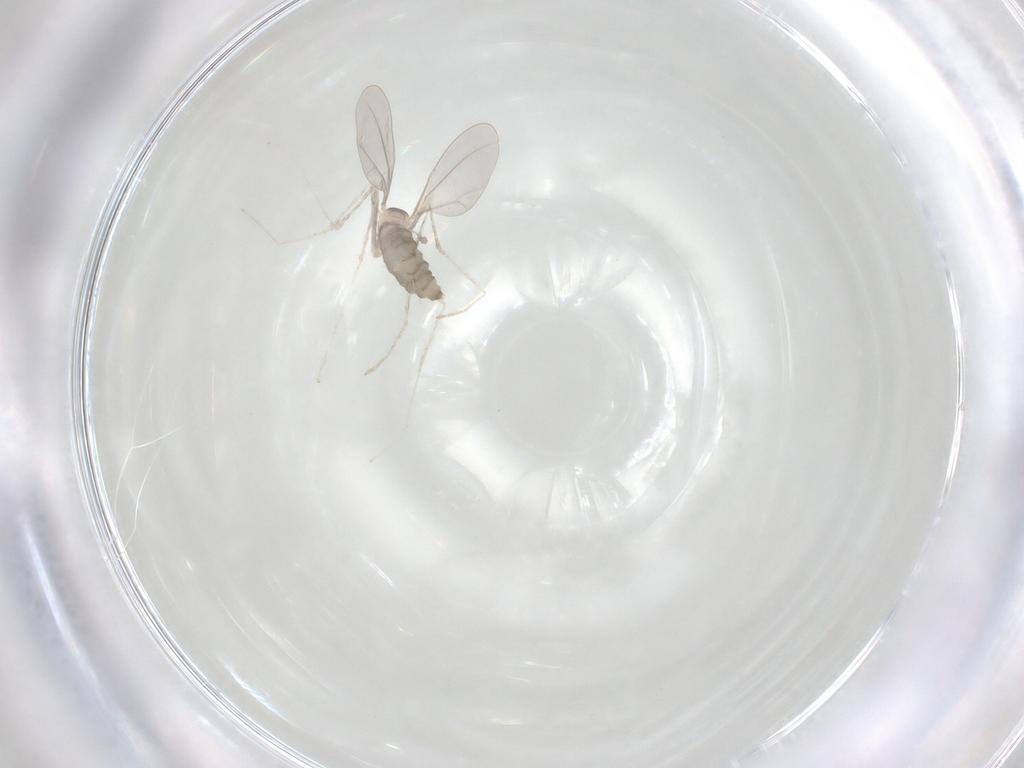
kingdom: Animalia
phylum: Arthropoda
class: Insecta
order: Diptera
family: Cecidomyiidae
